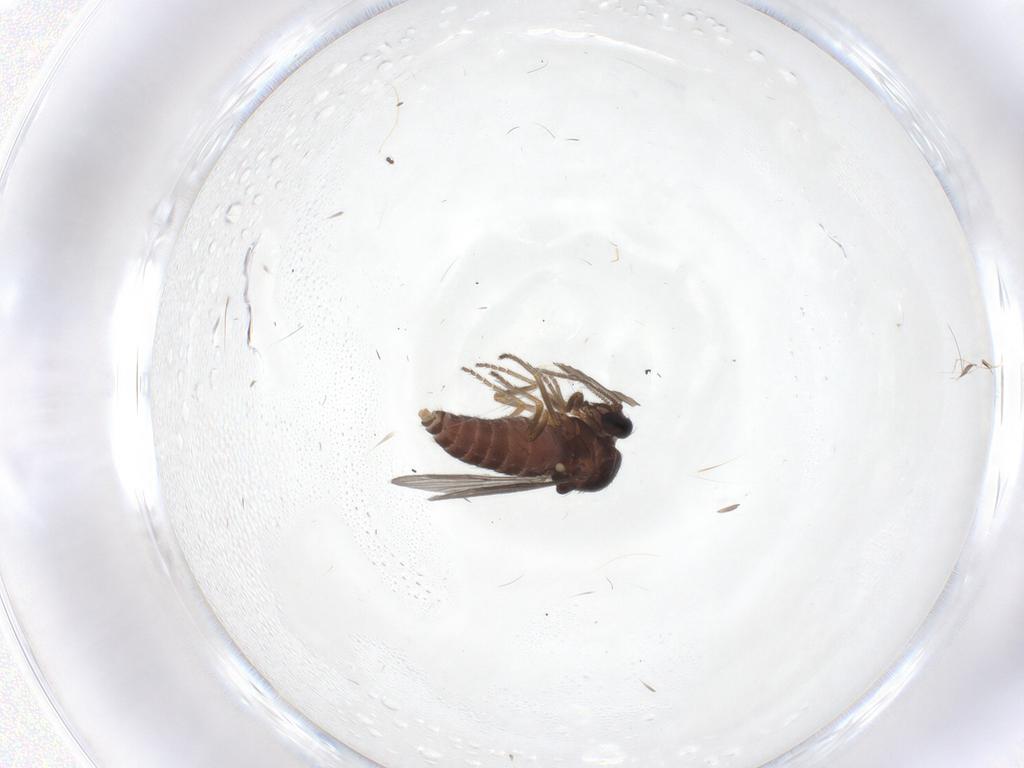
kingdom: Animalia
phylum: Arthropoda
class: Insecta
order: Diptera
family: Ceratopogonidae
